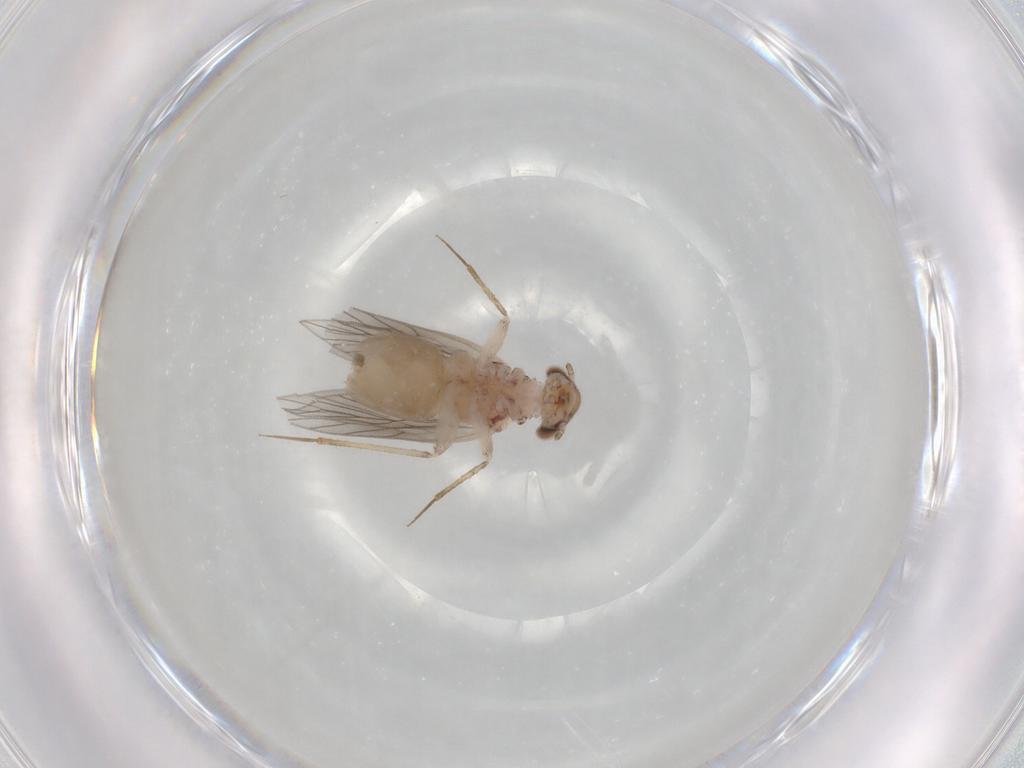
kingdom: Animalia
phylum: Arthropoda
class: Insecta
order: Psocodea
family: Lepidopsocidae
